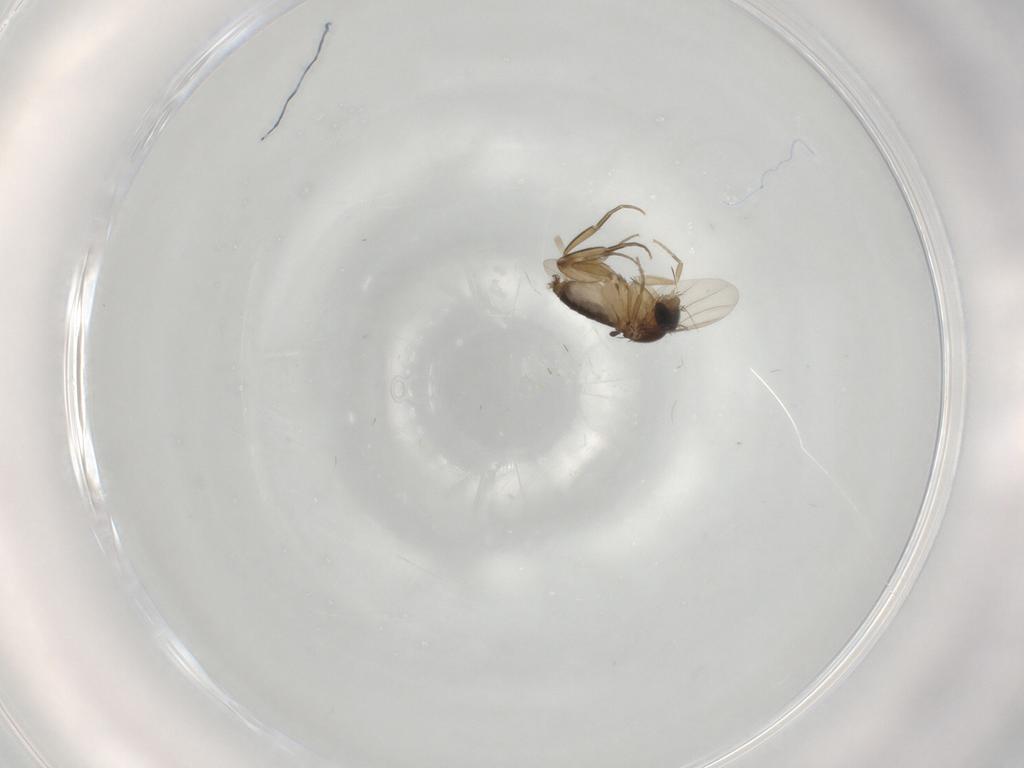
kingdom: Animalia
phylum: Arthropoda
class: Insecta
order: Diptera
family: Phoridae
